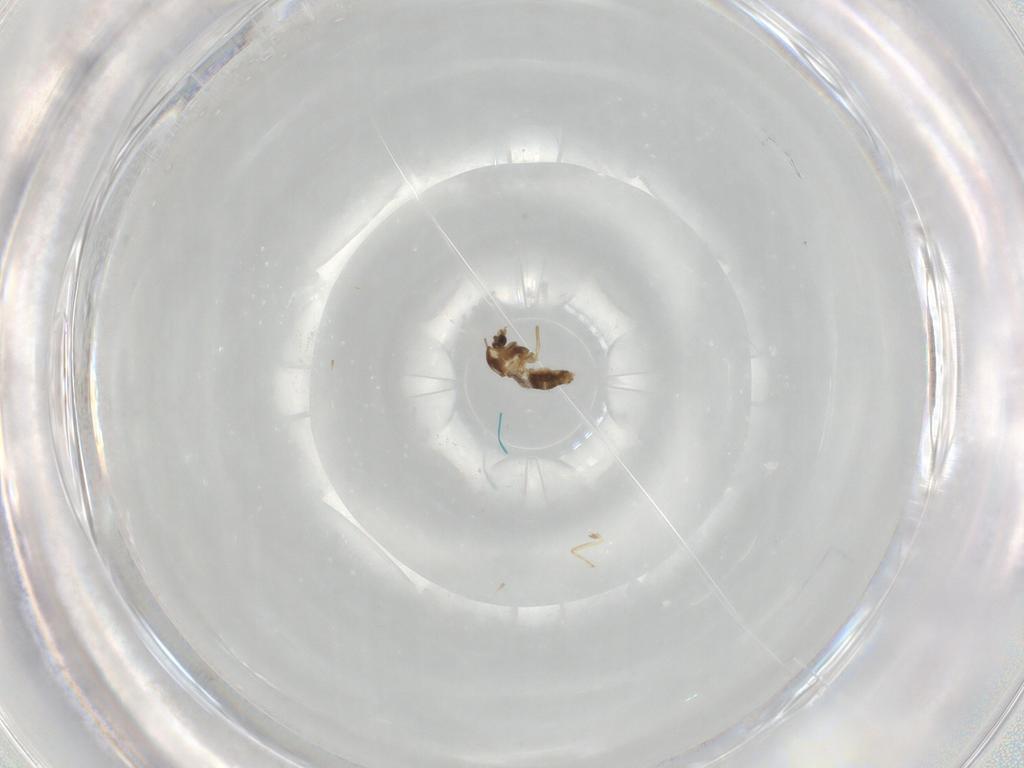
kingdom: Animalia
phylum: Arthropoda
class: Insecta
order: Diptera
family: Chironomidae
